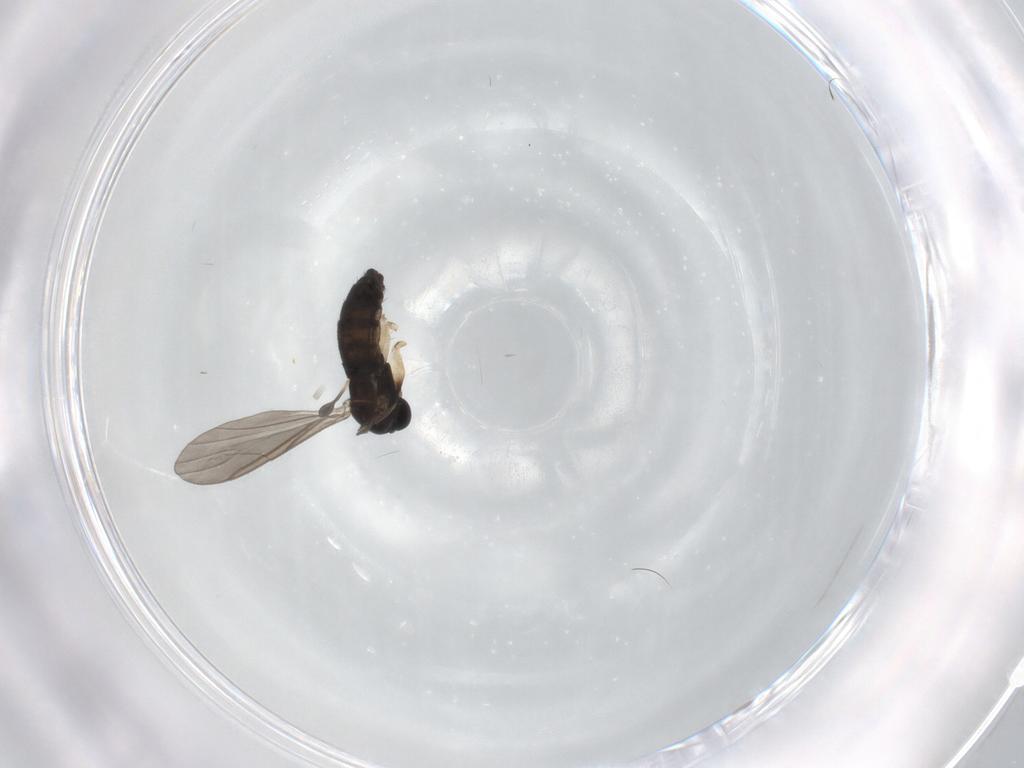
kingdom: Animalia
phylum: Arthropoda
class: Insecta
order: Diptera
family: Sciaridae
